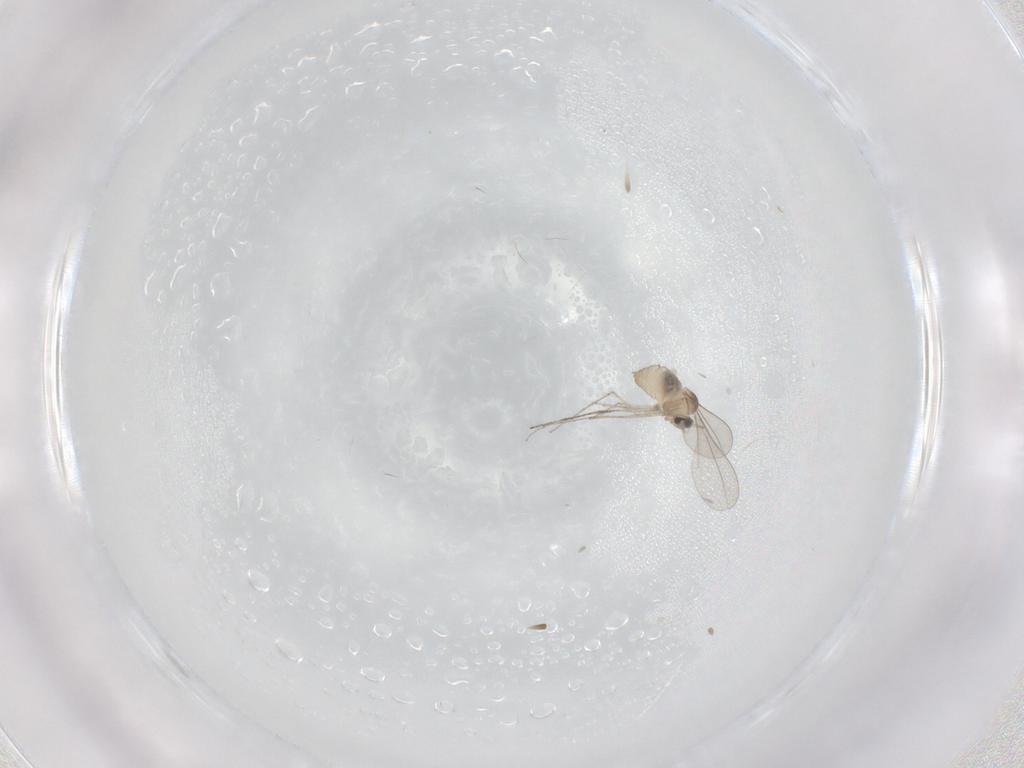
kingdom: Animalia
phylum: Arthropoda
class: Insecta
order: Diptera
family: Cecidomyiidae
